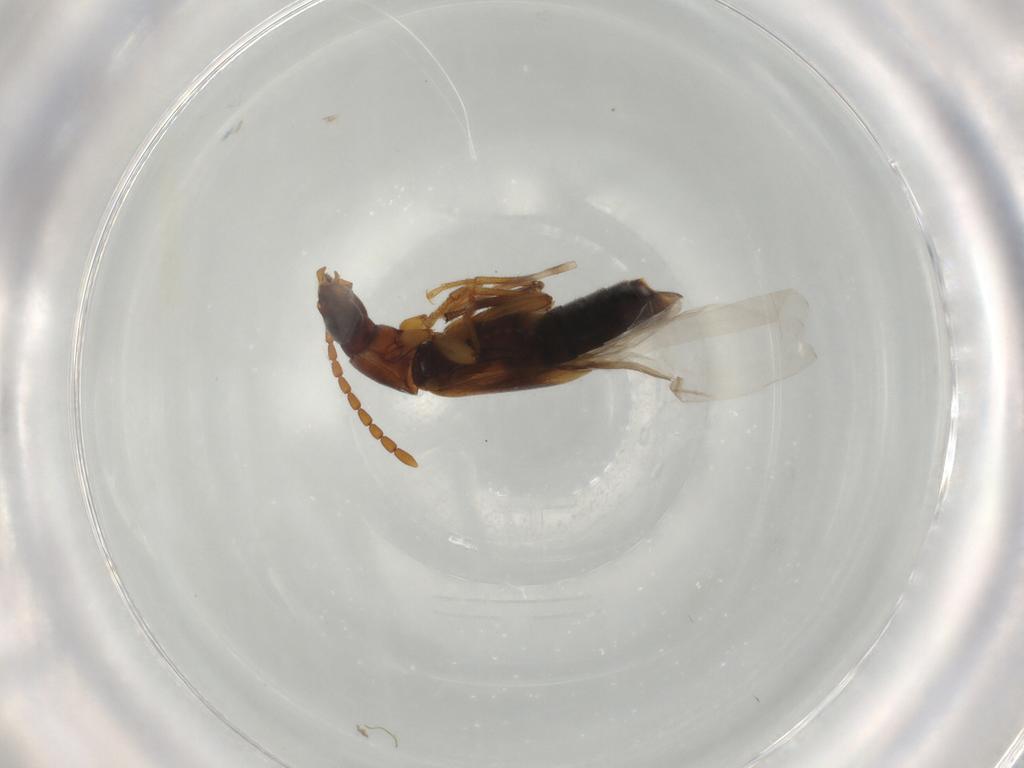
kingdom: Animalia
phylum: Arthropoda
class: Insecta
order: Coleoptera
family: Staphylinidae
